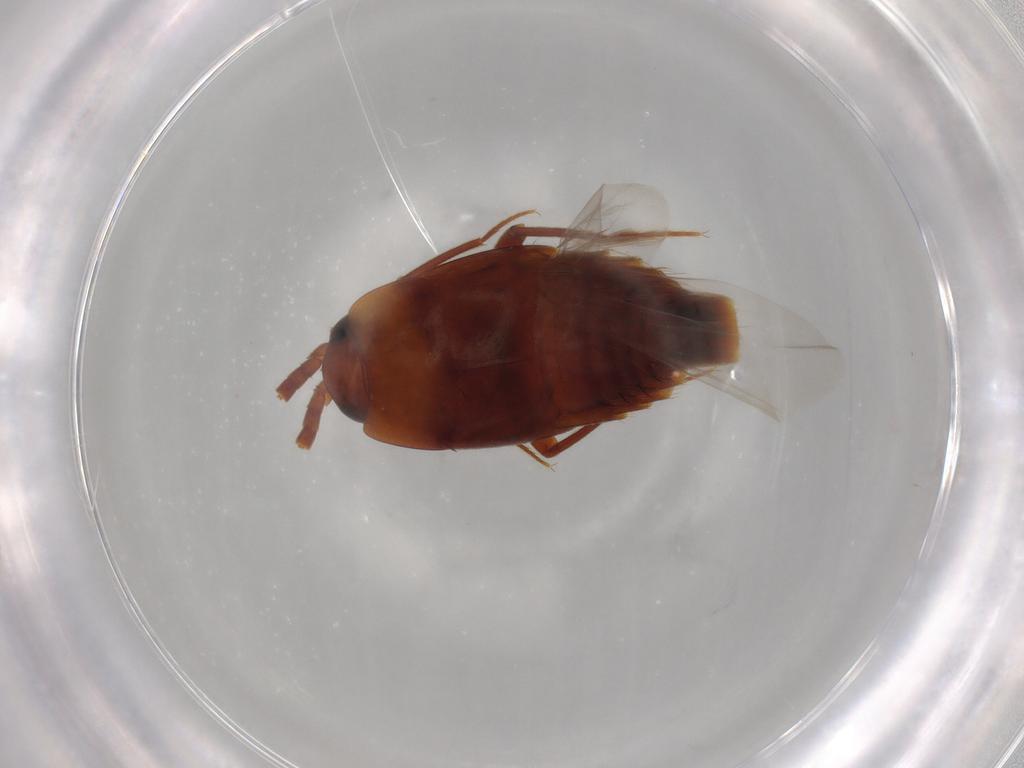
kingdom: Animalia
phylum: Arthropoda
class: Insecta
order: Coleoptera
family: Staphylinidae
